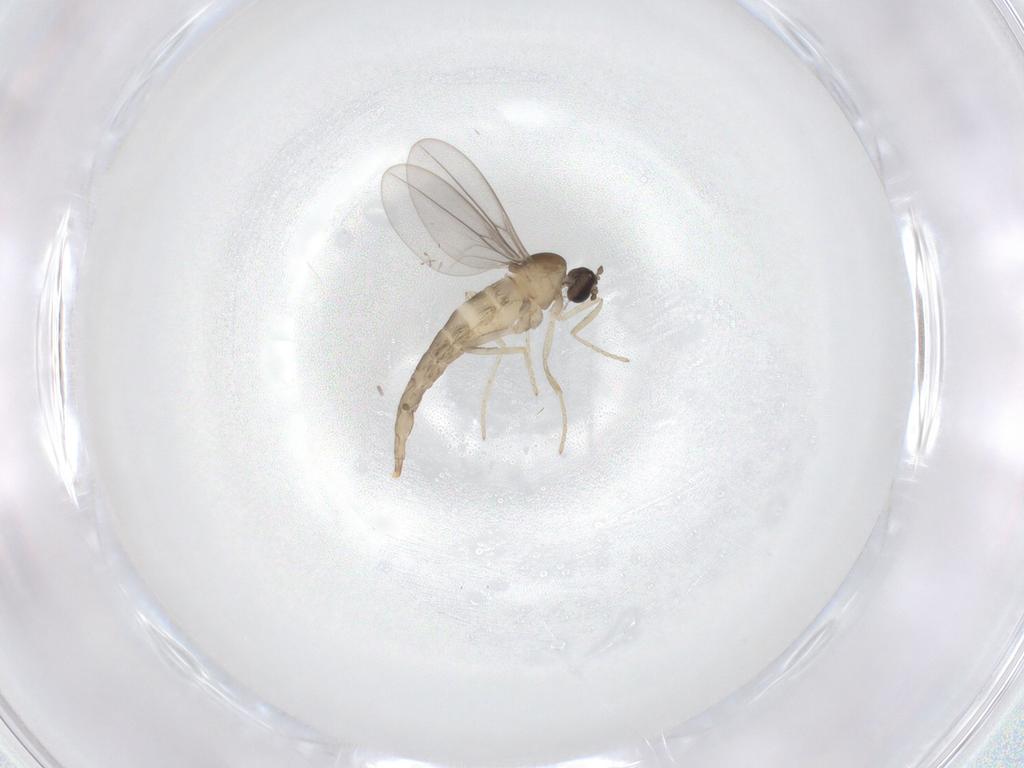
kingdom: Animalia
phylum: Arthropoda
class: Insecta
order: Diptera
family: Cecidomyiidae
